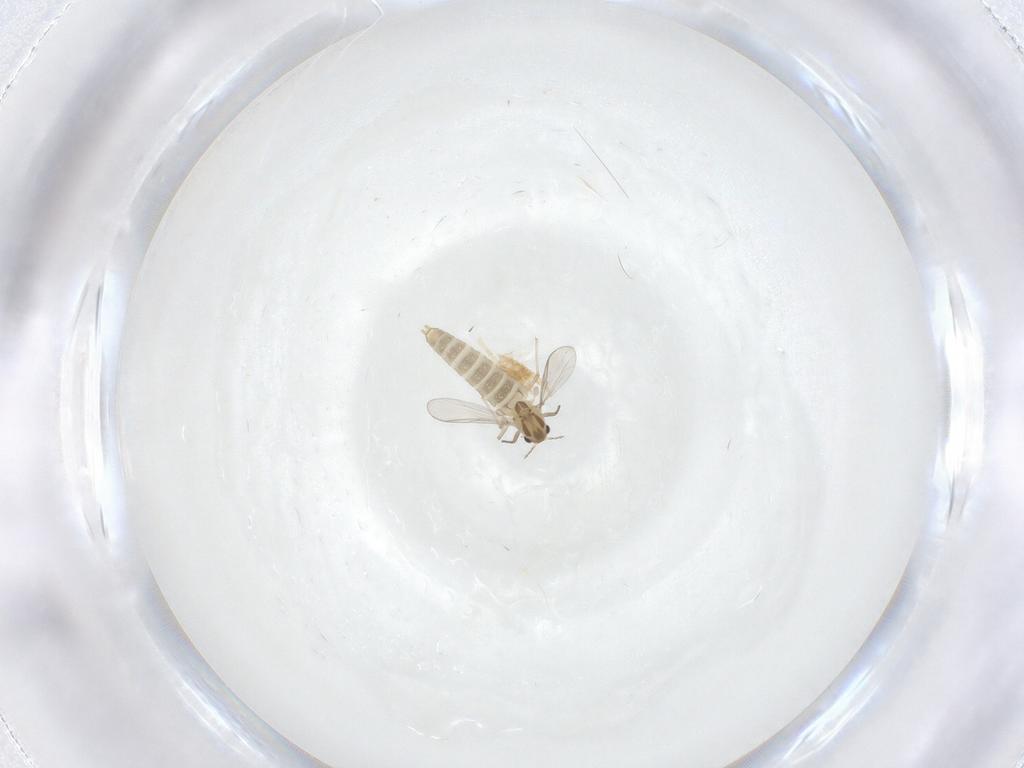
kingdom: Animalia
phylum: Arthropoda
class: Insecta
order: Diptera
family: Chironomidae
